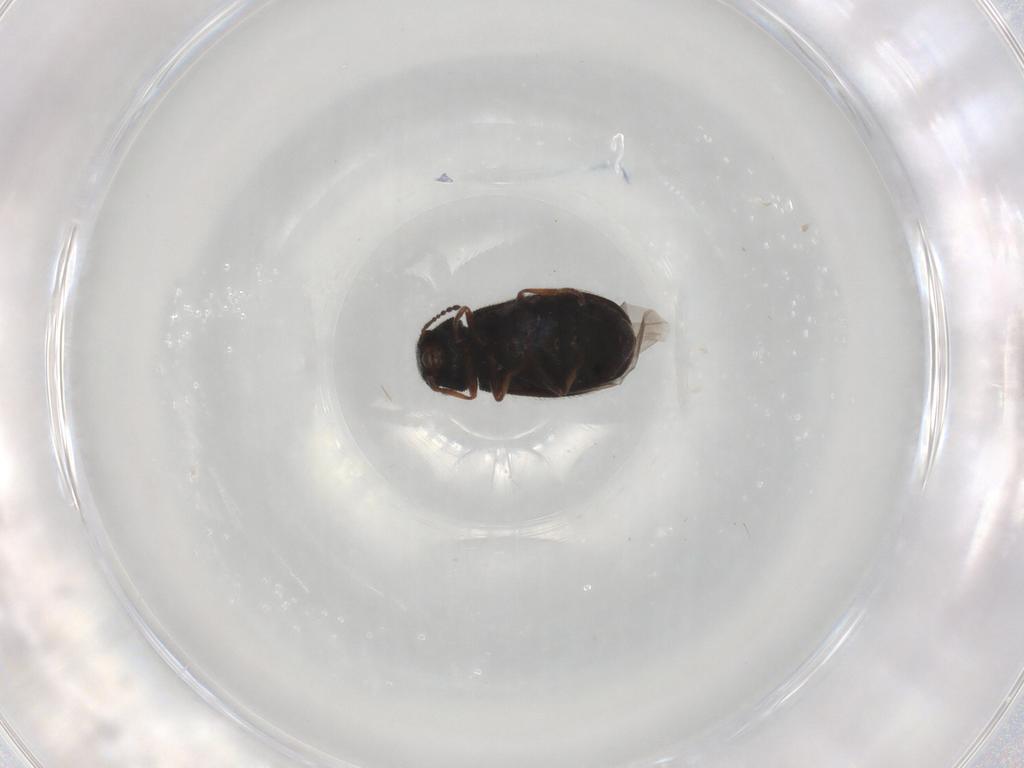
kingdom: Animalia
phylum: Arthropoda
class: Insecta
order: Coleoptera
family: Melyridae
